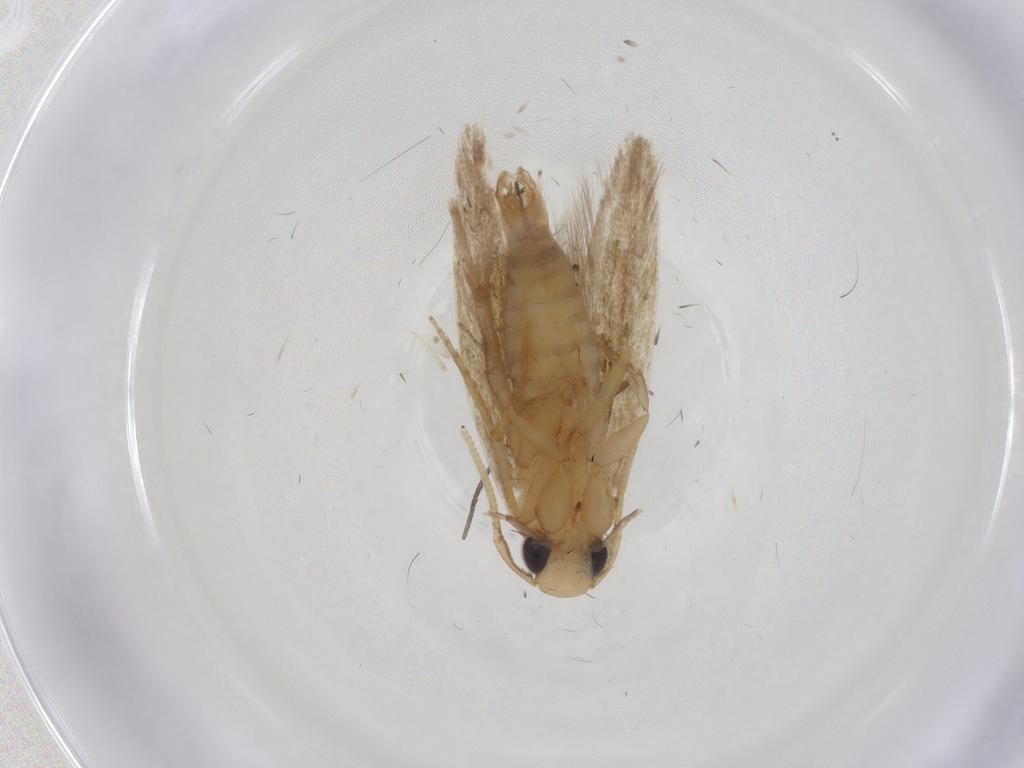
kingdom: Animalia
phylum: Arthropoda
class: Insecta
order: Lepidoptera
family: Tineidae
